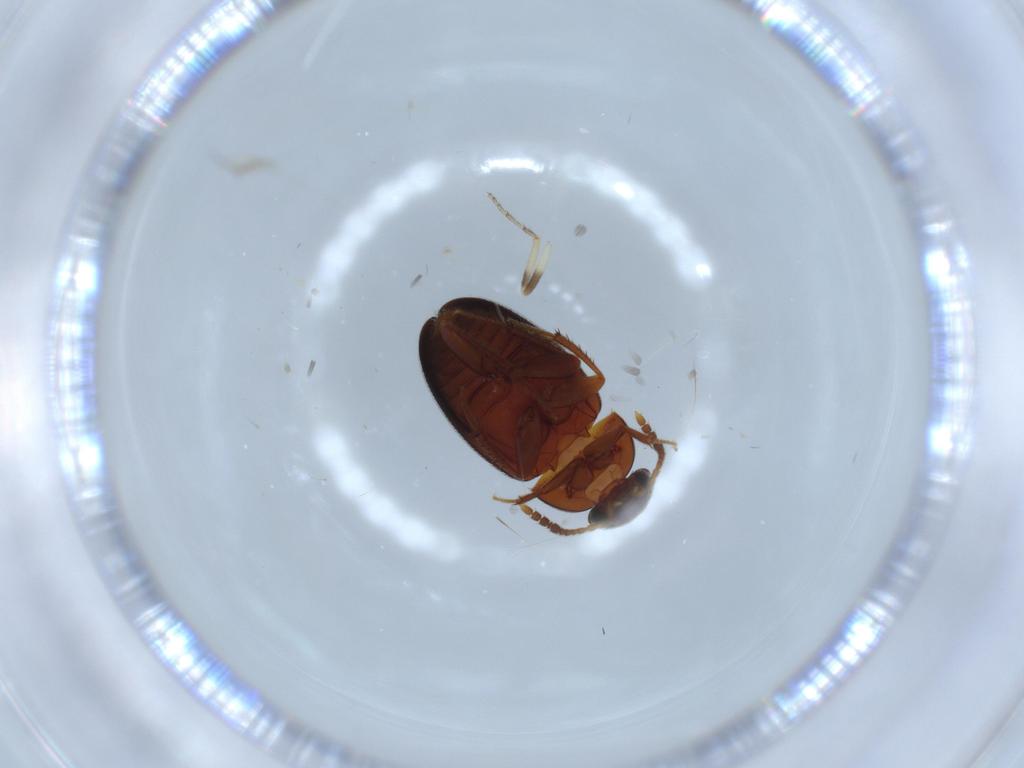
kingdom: Animalia
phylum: Arthropoda
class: Insecta
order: Coleoptera
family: Leiodidae
